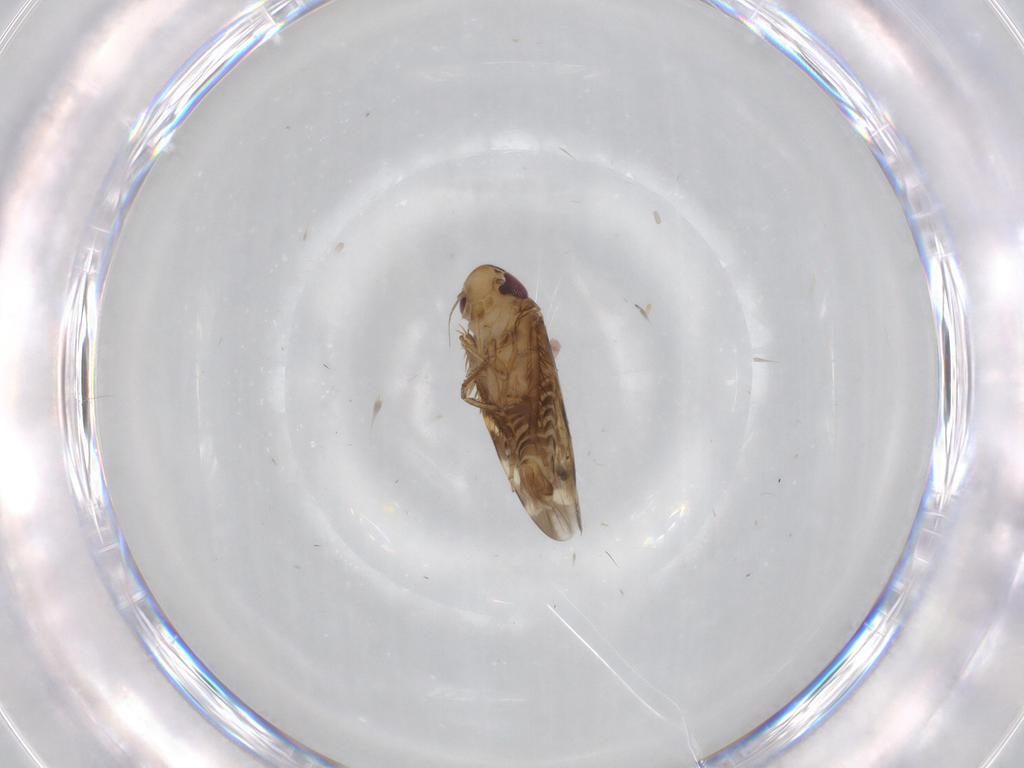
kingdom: Animalia
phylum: Arthropoda
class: Insecta
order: Hemiptera
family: Cicadellidae
